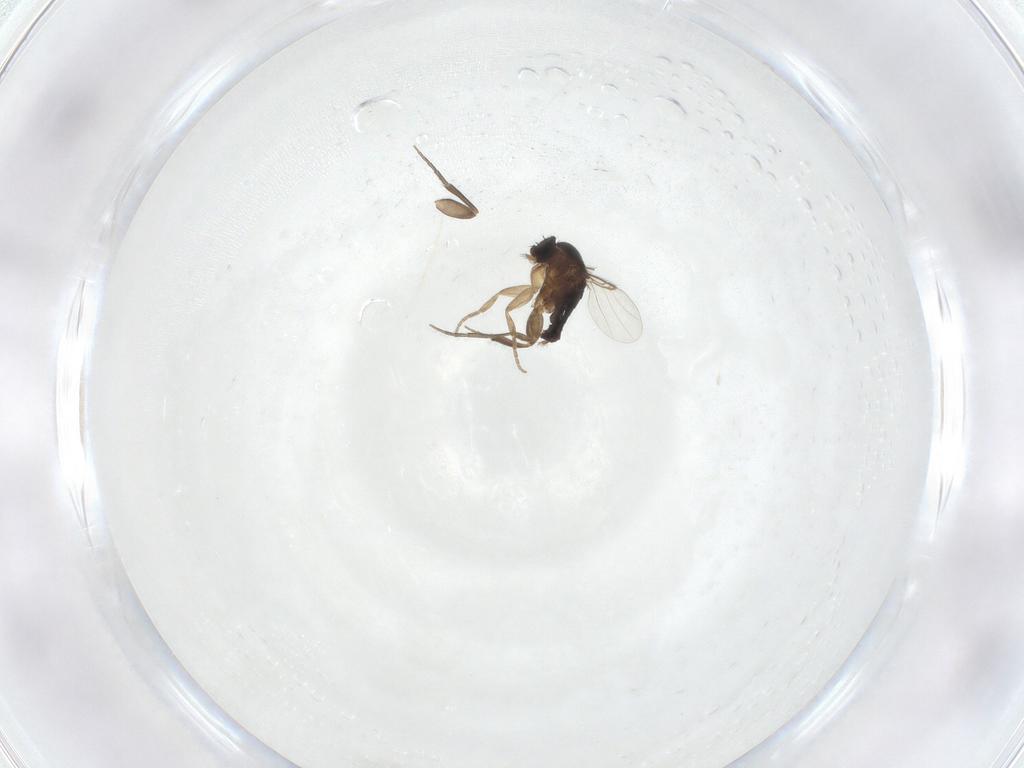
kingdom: Animalia
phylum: Arthropoda
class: Insecta
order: Diptera
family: Phoridae
